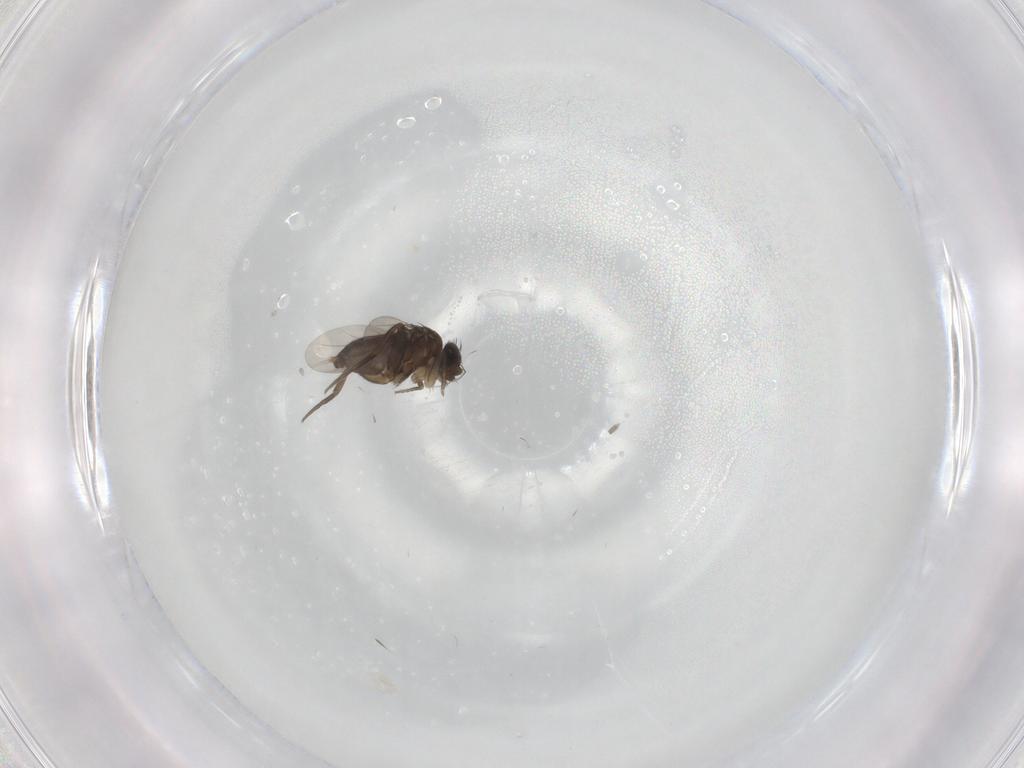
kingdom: Animalia
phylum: Arthropoda
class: Insecta
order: Diptera
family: Phoridae
